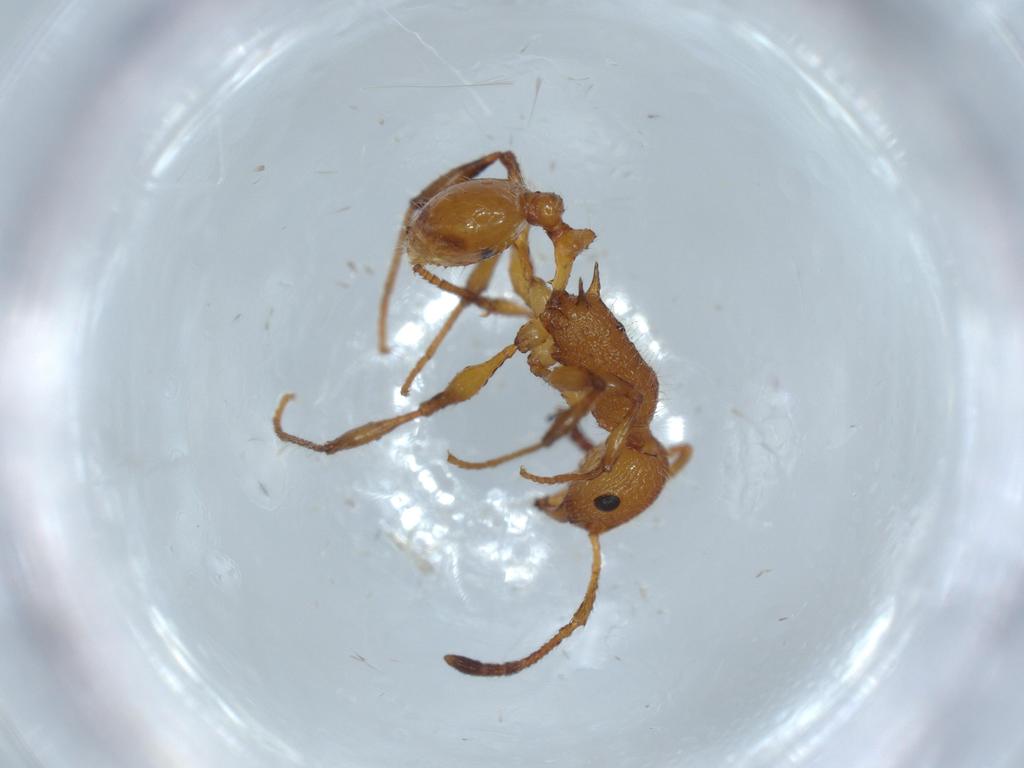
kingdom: Animalia
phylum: Arthropoda
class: Insecta
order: Hymenoptera
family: Formicidae
